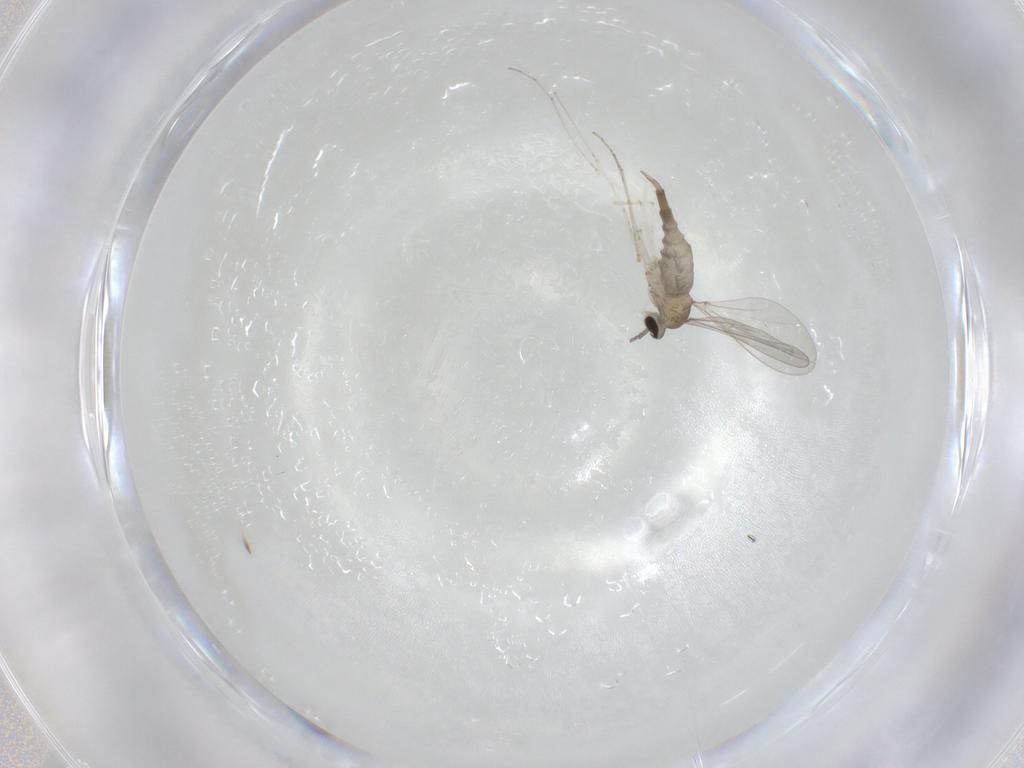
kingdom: Animalia
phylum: Arthropoda
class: Insecta
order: Diptera
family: Cecidomyiidae
